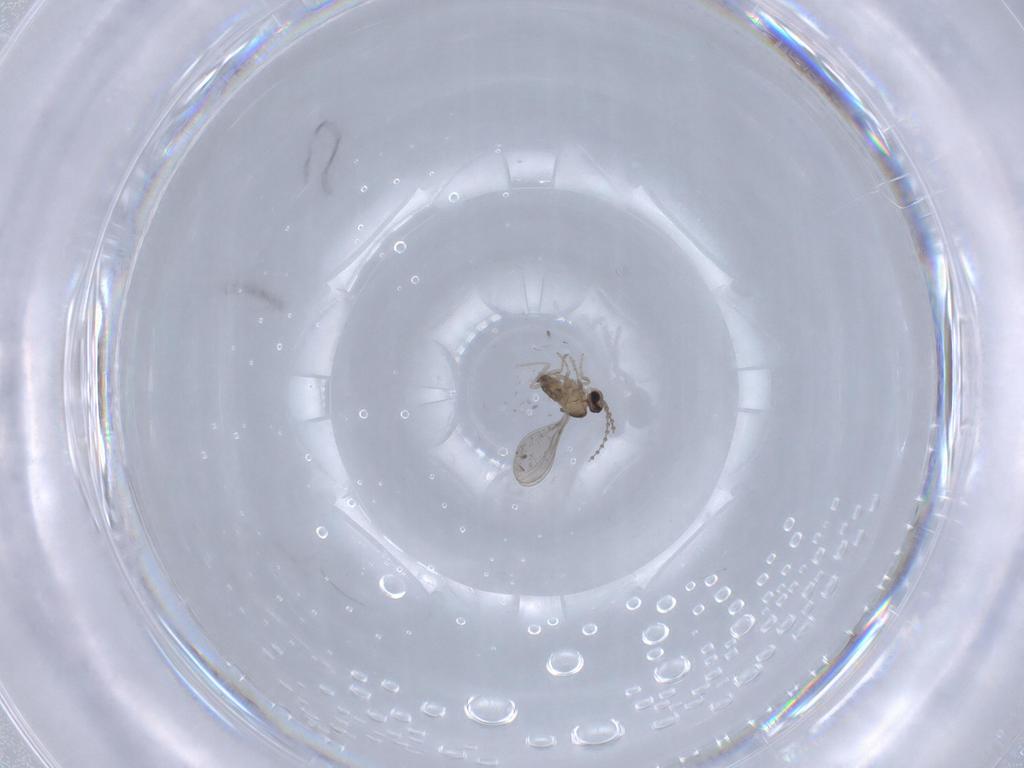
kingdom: Animalia
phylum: Arthropoda
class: Insecta
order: Diptera
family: Cecidomyiidae
